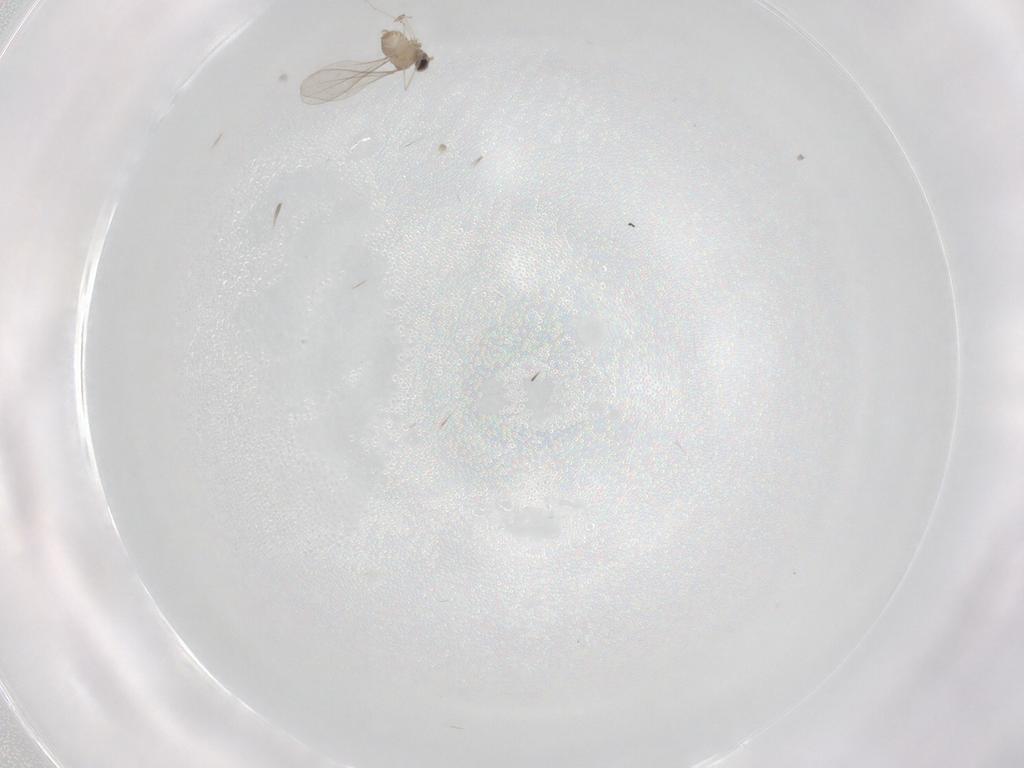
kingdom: Animalia
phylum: Arthropoda
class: Insecta
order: Diptera
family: Cecidomyiidae
